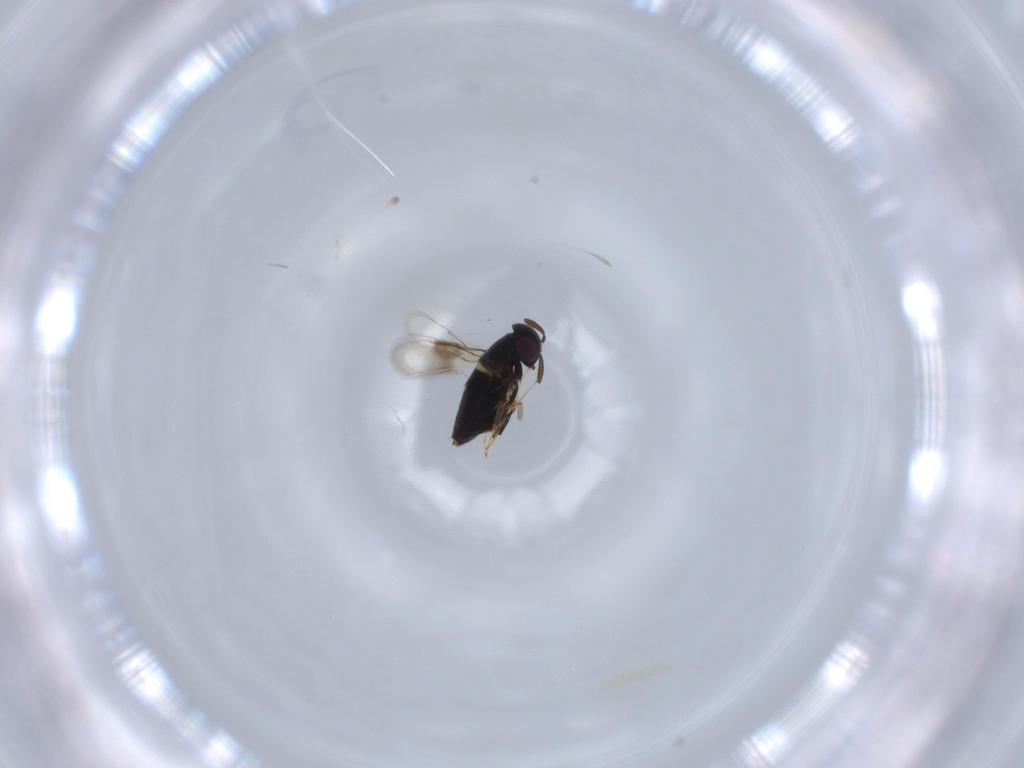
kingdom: Animalia
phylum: Arthropoda
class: Insecta
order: Hymenoptera
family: Signiphoridae
